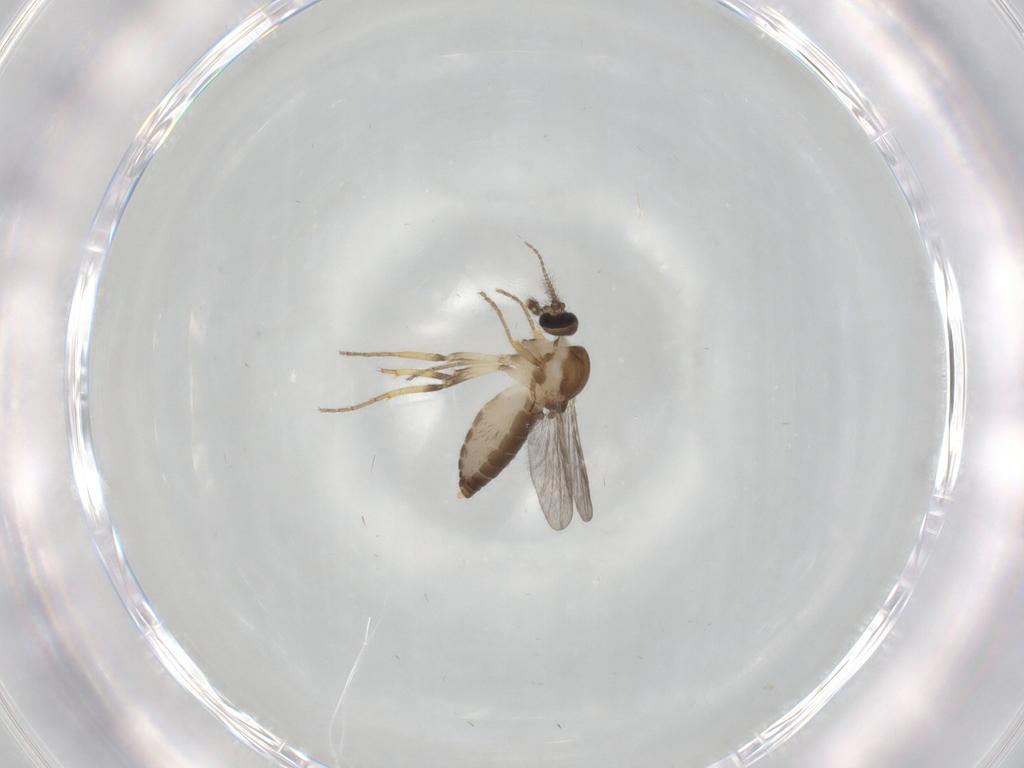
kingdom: Animalia
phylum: Arthropoda
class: Insecta
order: Diptera
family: Ceratopogonidae
